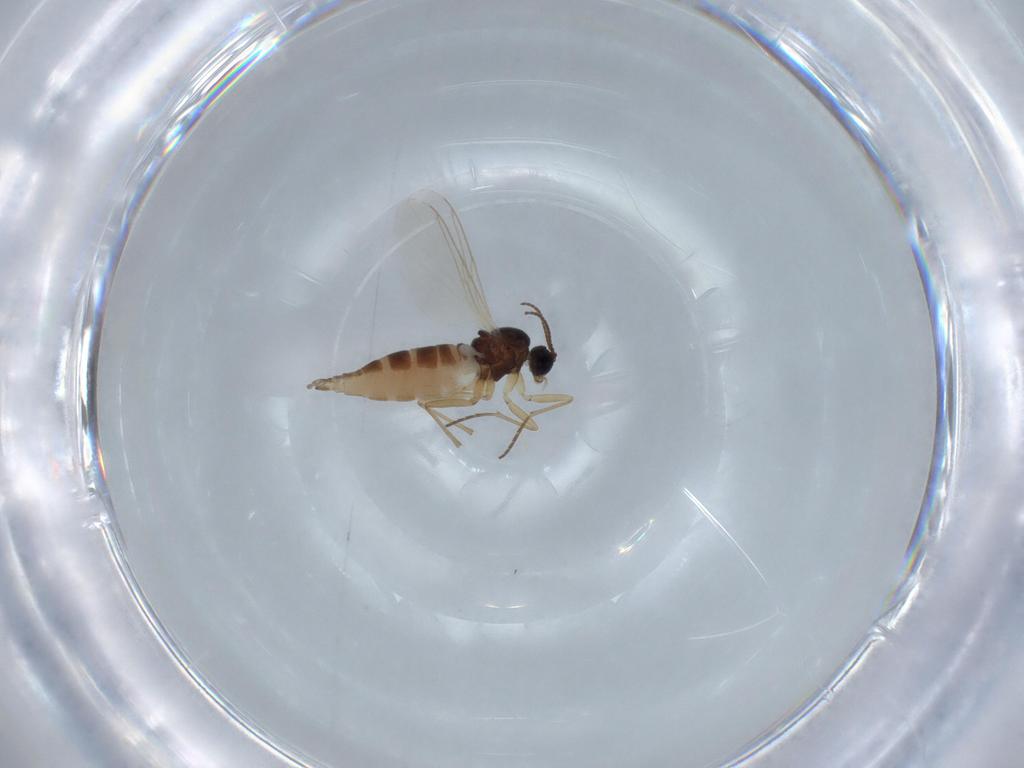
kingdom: Animalia
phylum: Arthropoda
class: Insecta
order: Diptera
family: Sciaridae
